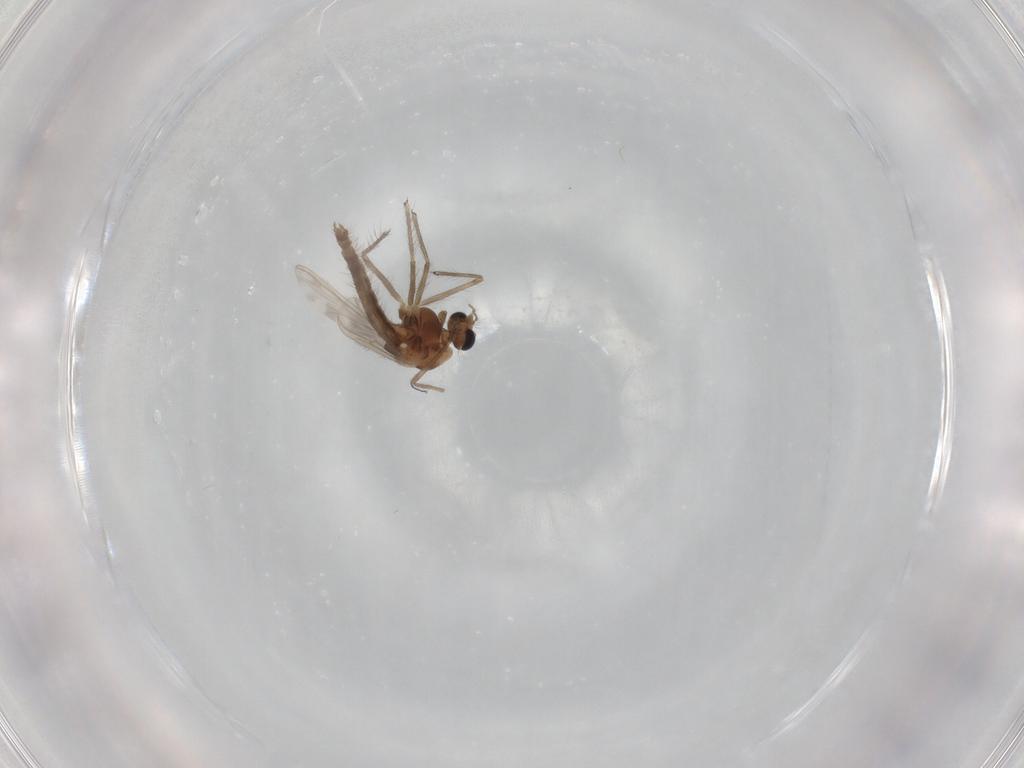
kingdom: Animalia
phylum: Arthropoda
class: Insecta
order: Diptera
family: Chironomidae
